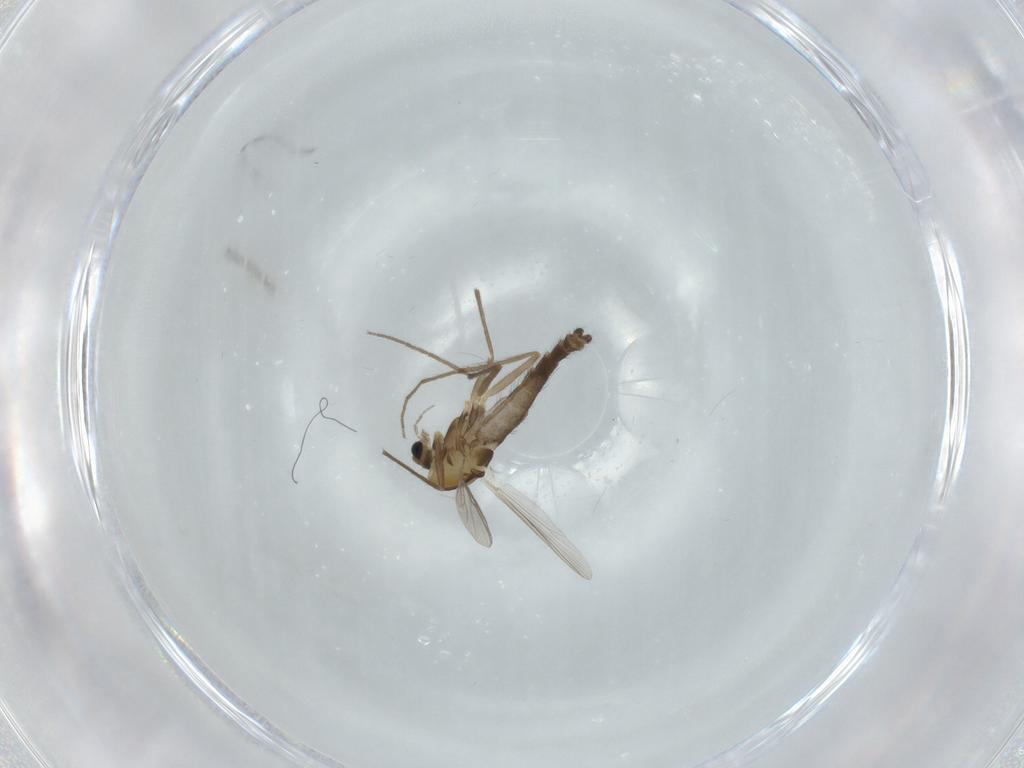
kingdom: Animalia
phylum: Arthropoda
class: Insecta
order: Diptera
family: Chironomidae
